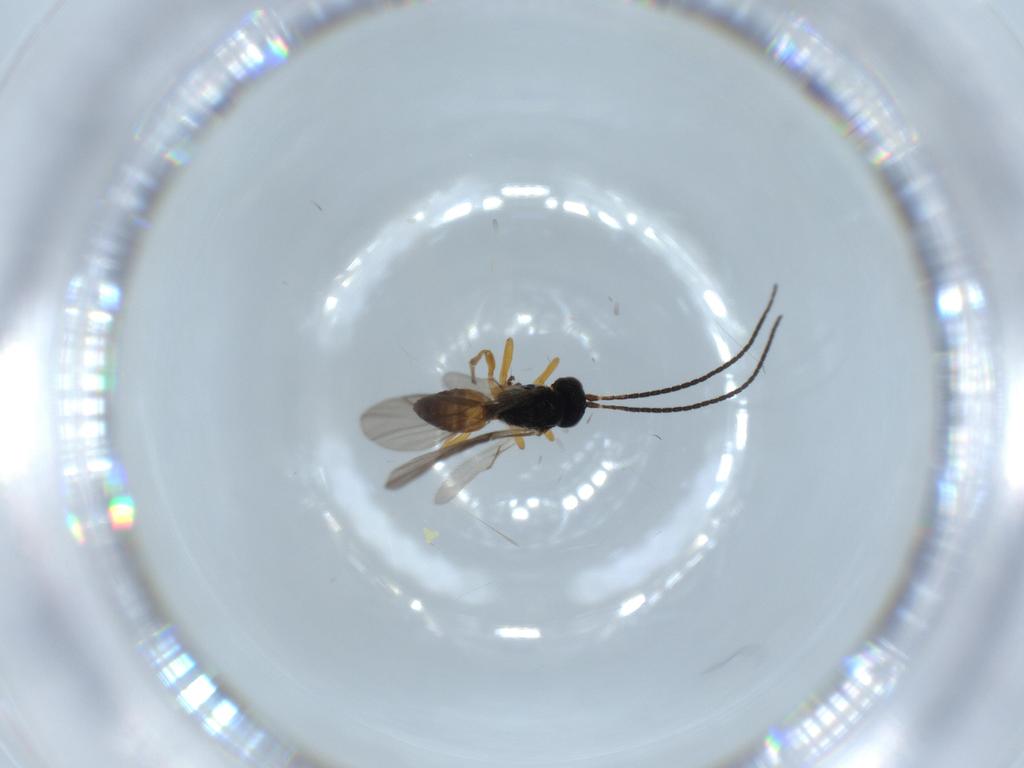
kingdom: Animalia
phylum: Arthropoda
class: Insecta
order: Hymenoptera
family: Braconidae
